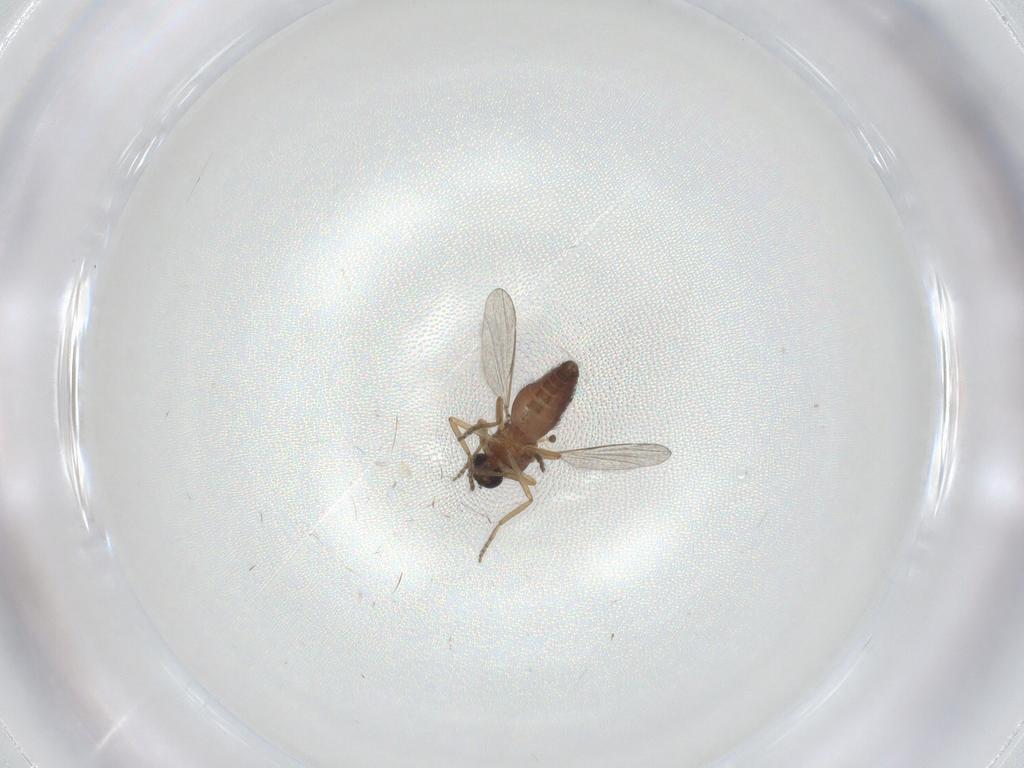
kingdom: Animalia
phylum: Arthropoda
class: Insecta
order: Diptera
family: Ceratopogonidae
